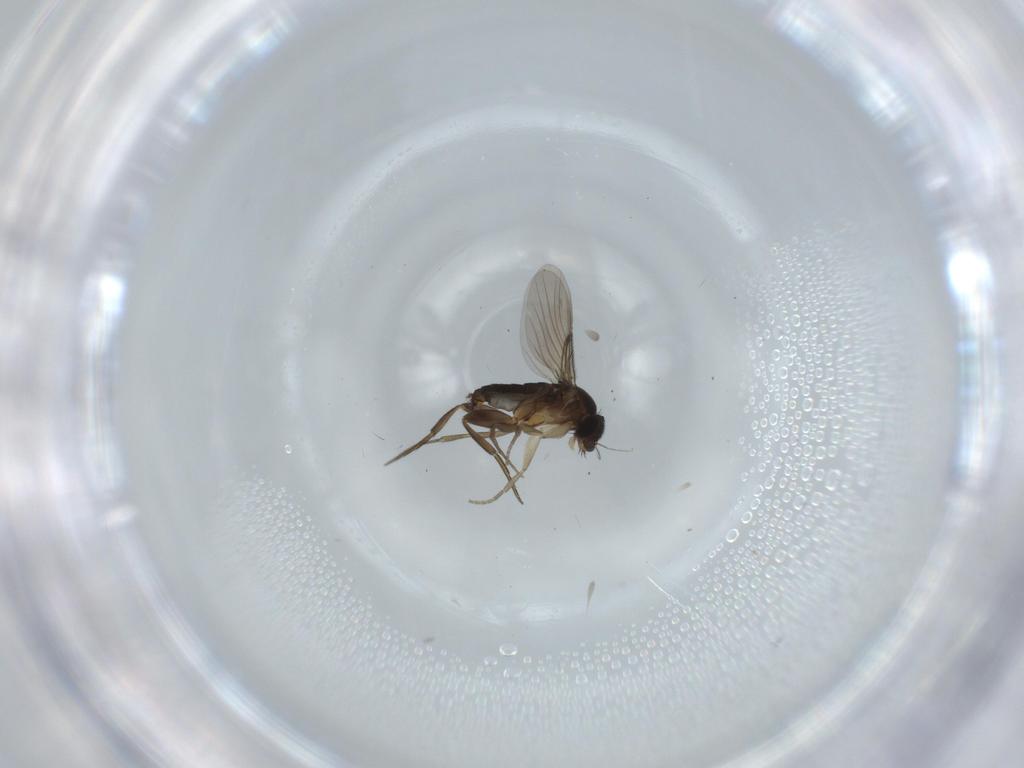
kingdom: Animalia
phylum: Arthropoda
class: Insecta
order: Diptera
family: Phoridae
